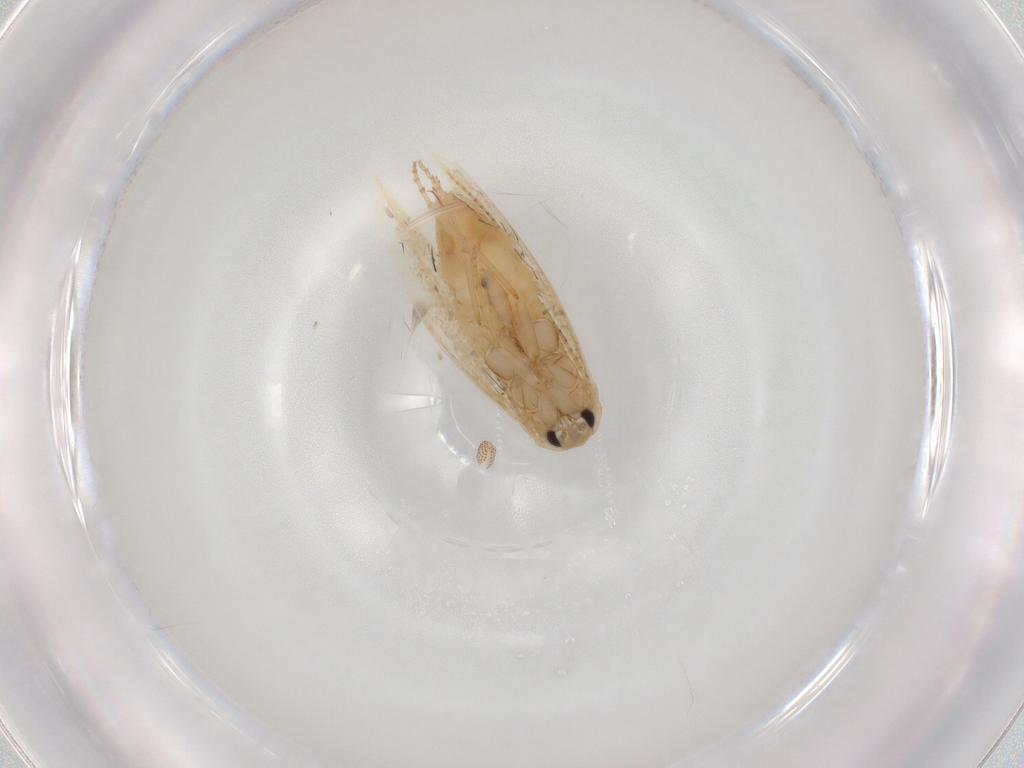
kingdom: Animalia
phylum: Arthropoda
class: Insecta
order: Lepidoptera
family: Bucculatricidae
